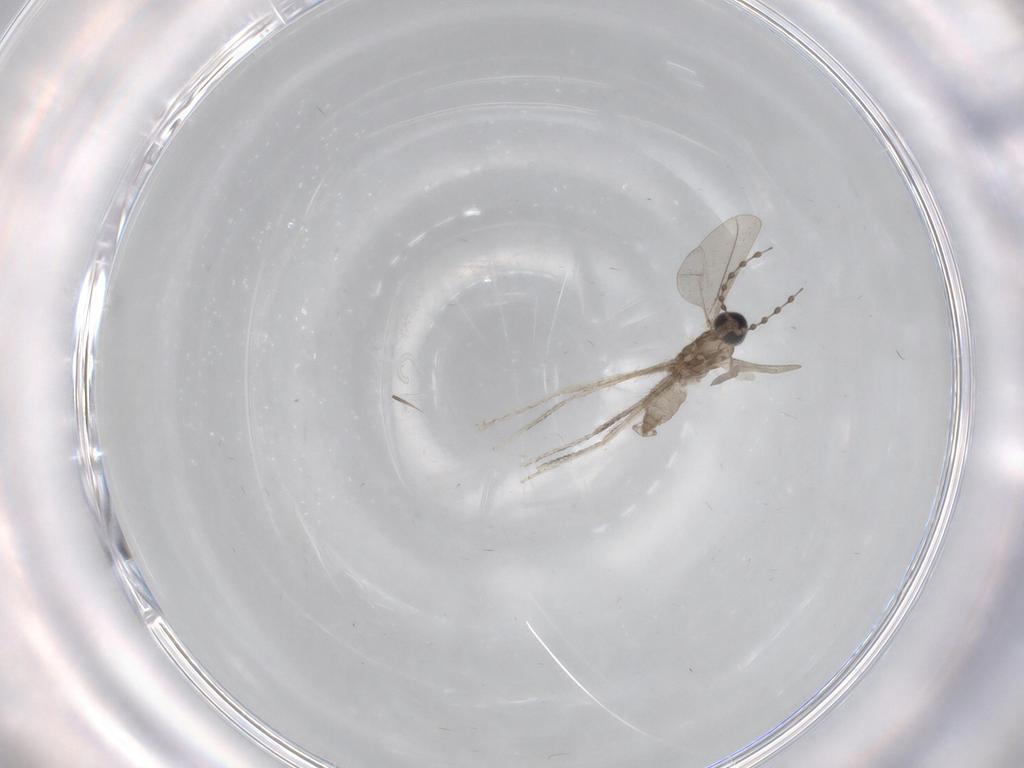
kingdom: Animalia
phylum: Arthropoda
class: Insecta
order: Diptera
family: Cecidomyiidae
